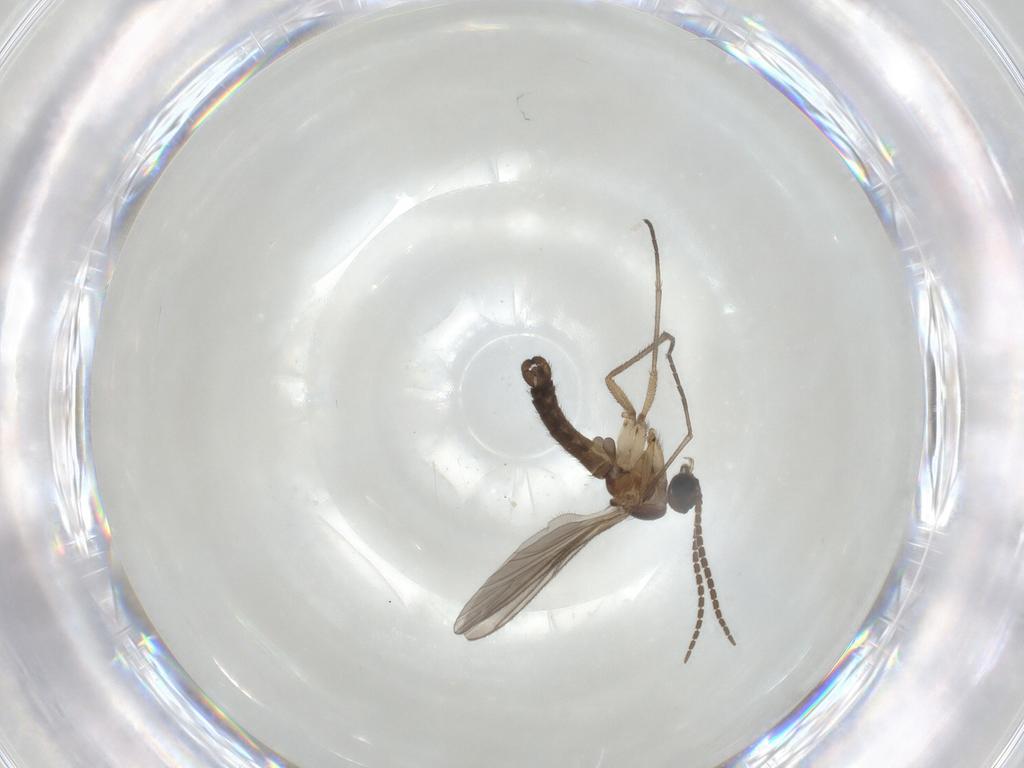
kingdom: Animalia
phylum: Arthropoda
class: Insecta
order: Diptera
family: Sciaridae
